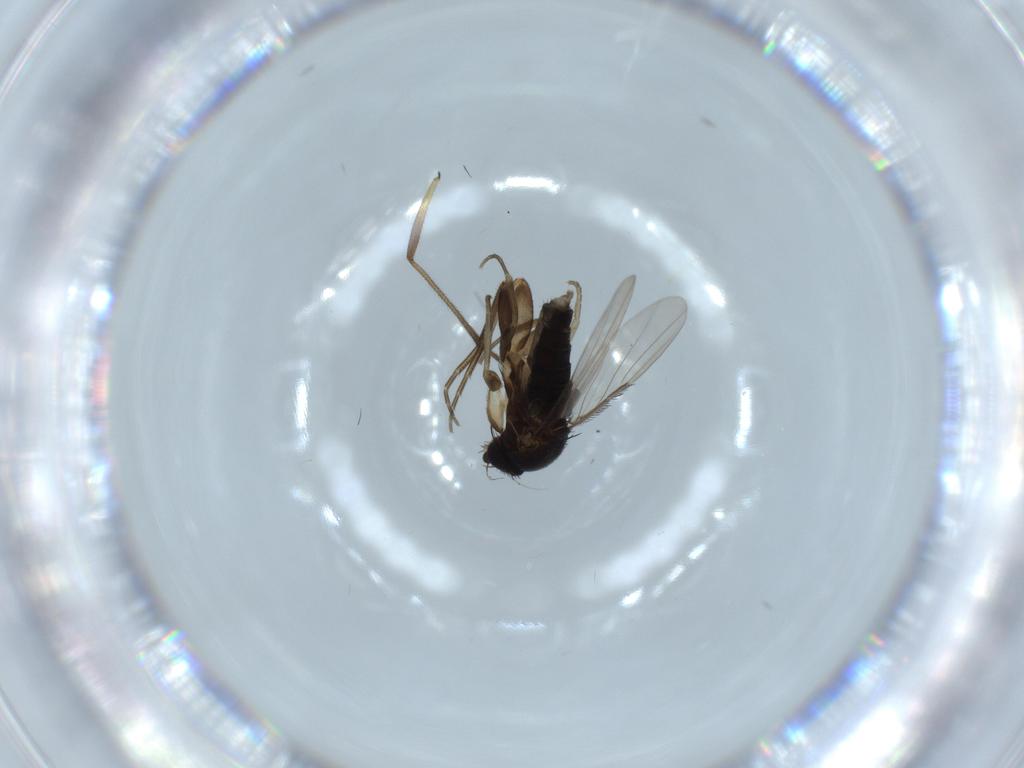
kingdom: Animalia
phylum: Arthropoda
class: Insecta
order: Diptera
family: Phoridae
